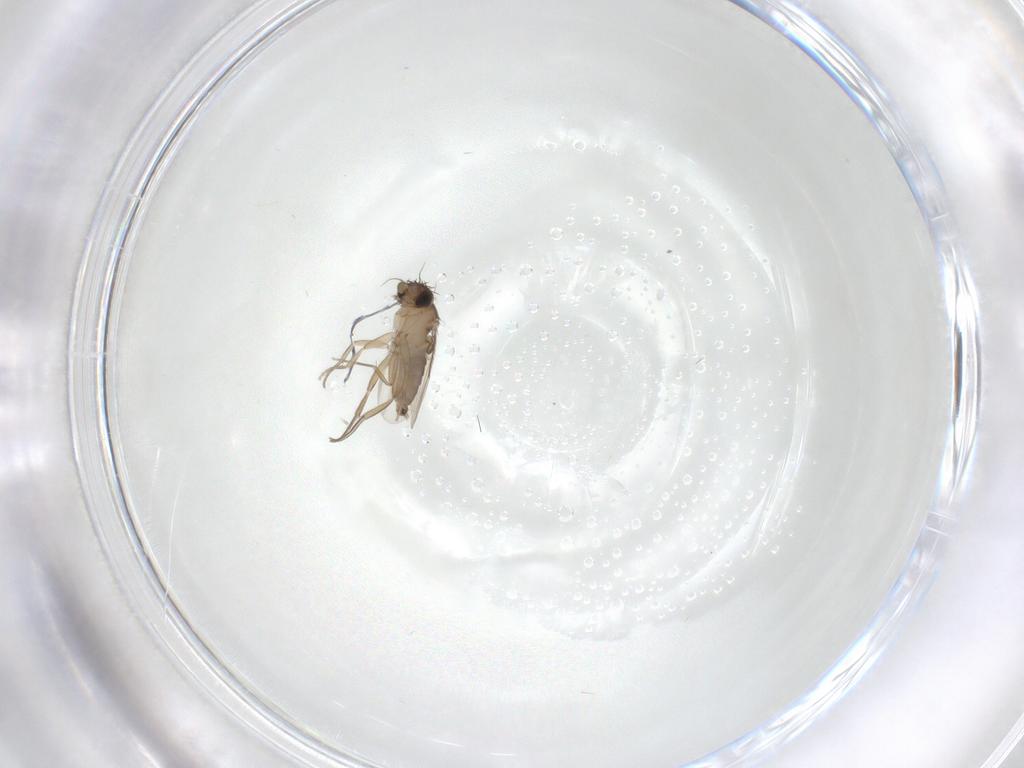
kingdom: Animalia
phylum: Arthropoda
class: Insecta
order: Diptera
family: Phoridae
